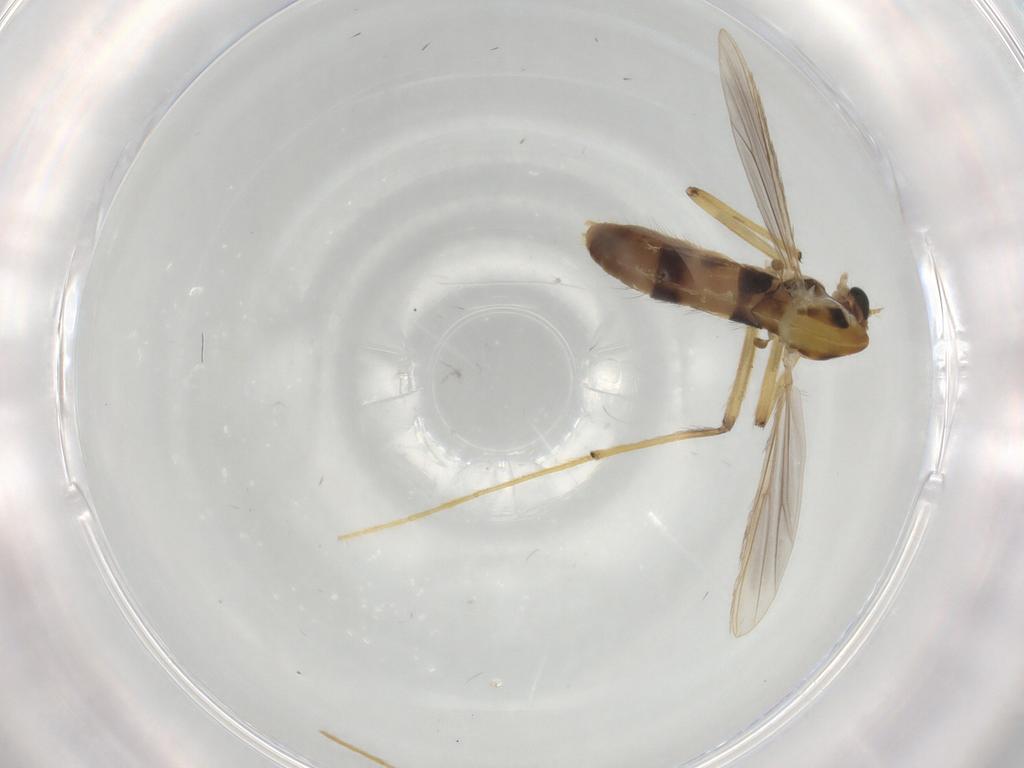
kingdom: Animalia
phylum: Arthropoda
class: Insecta
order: Diptera
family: Chironomidae
